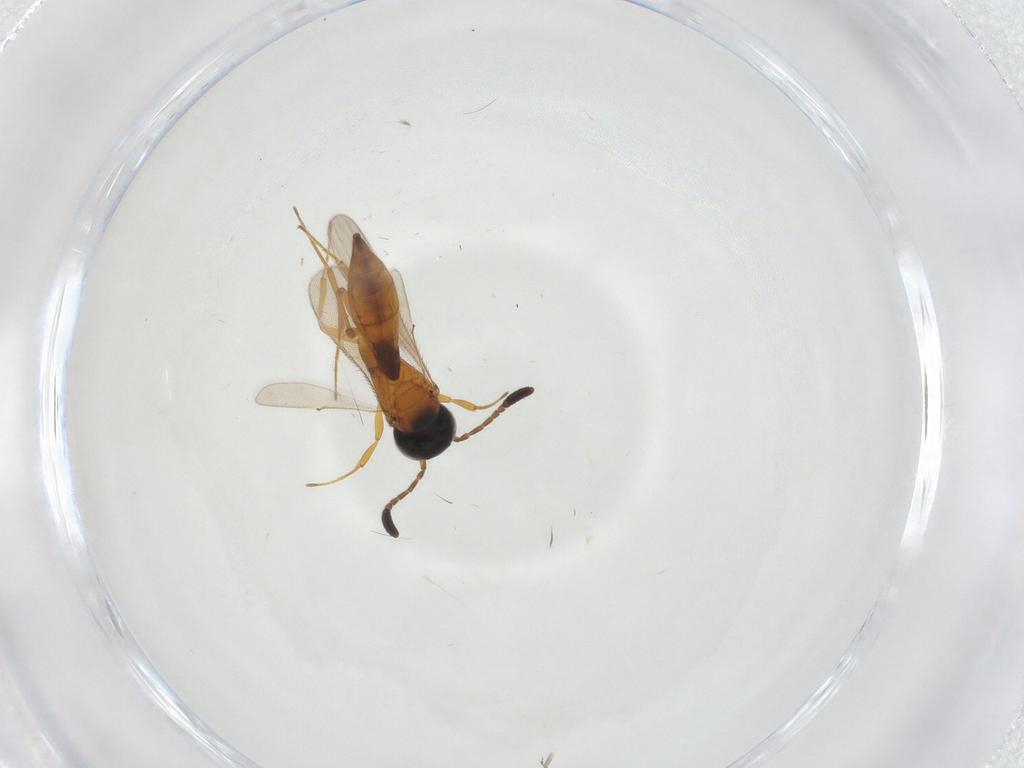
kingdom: Animalia
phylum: Arthropoda
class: Insecta
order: Hymenoptera
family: Scelionidae
